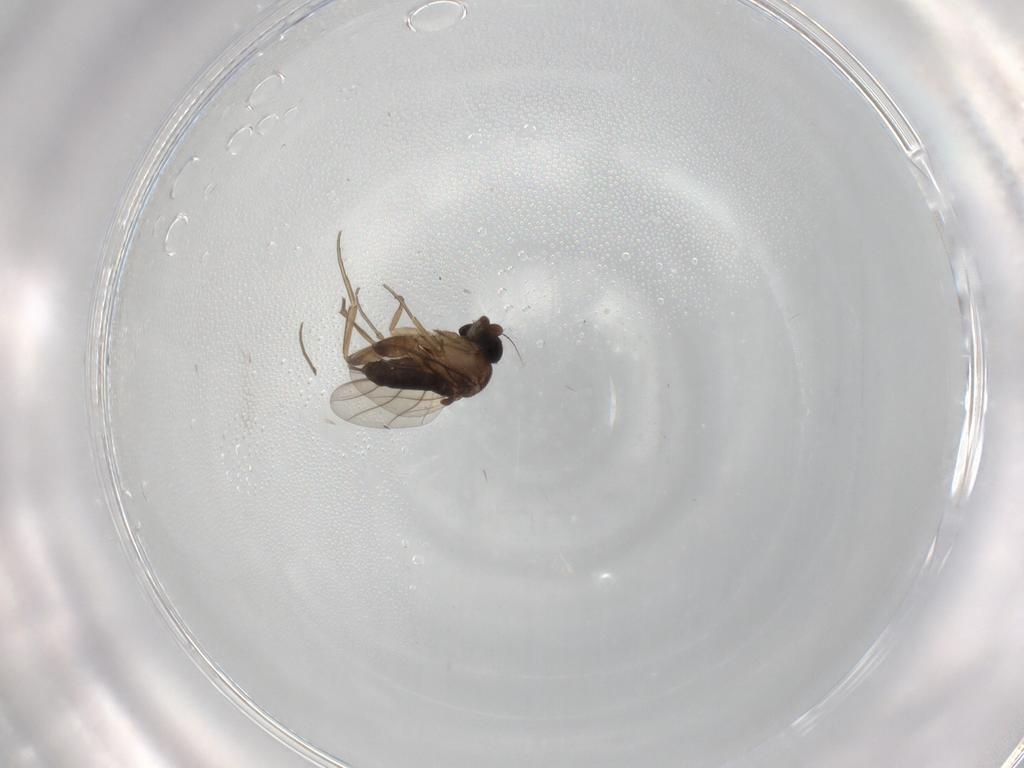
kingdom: Animalia
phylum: Arthropoda
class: Insecta
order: Diptera
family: Phoridae
